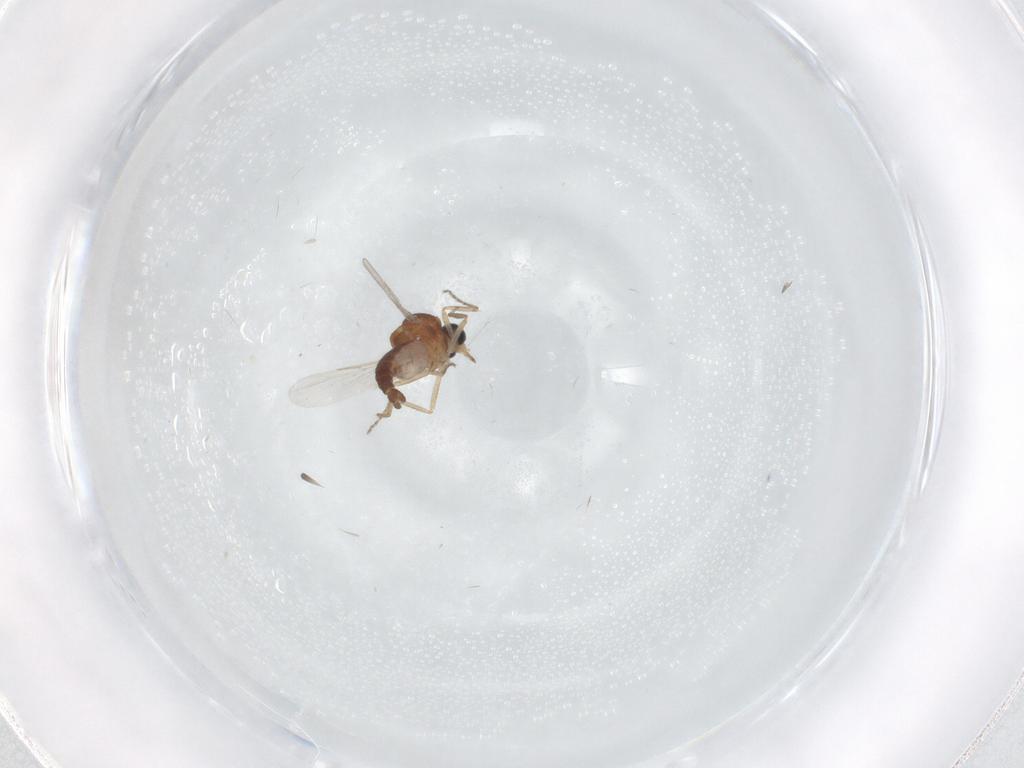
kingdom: Animalia
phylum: Arthropoda
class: Insecta
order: Diptera
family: Ceratopogonidae
